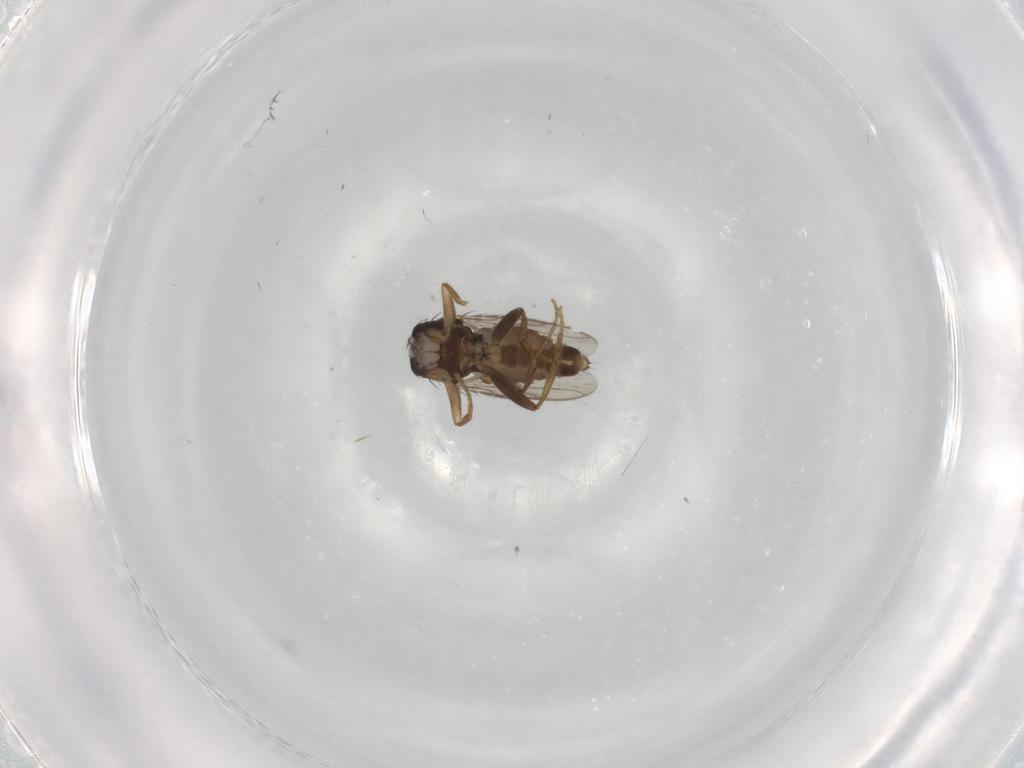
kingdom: Animalia
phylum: Arthropoda
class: Insecta
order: Diptera
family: Sphaeroceridae
